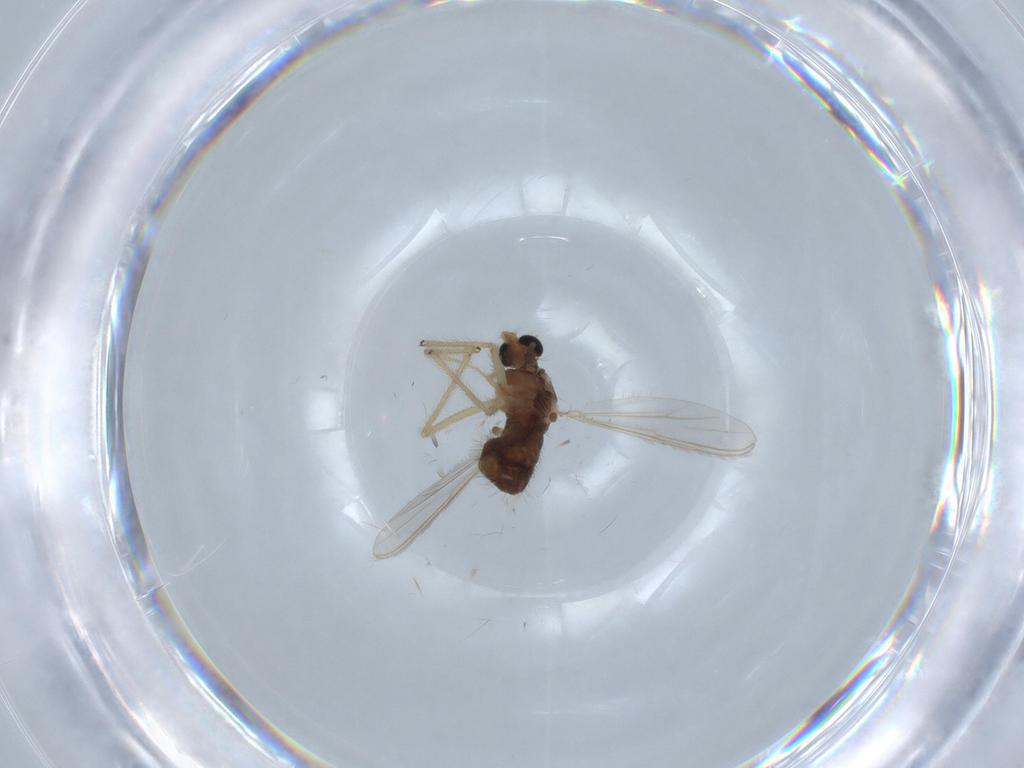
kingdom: Animalia
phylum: Arthropoda
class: Insecta
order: Diptera
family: Chironomidae
